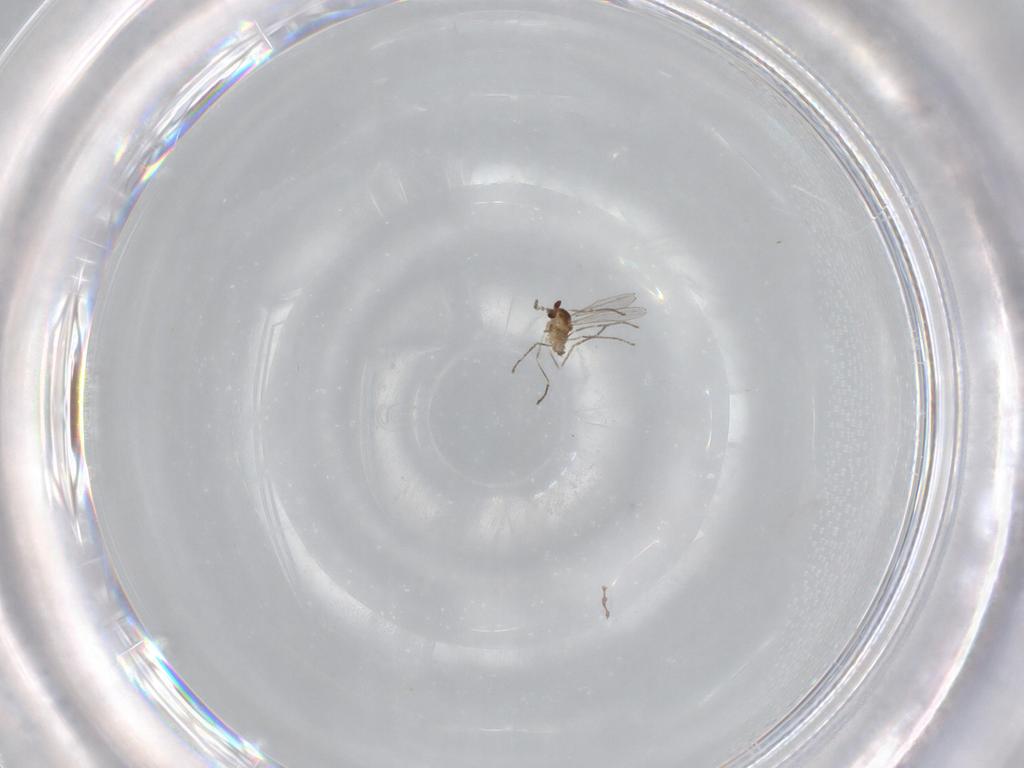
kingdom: Animalia
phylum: Arthropoda
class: Insecta
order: Diptera
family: Cecidomyiidae
